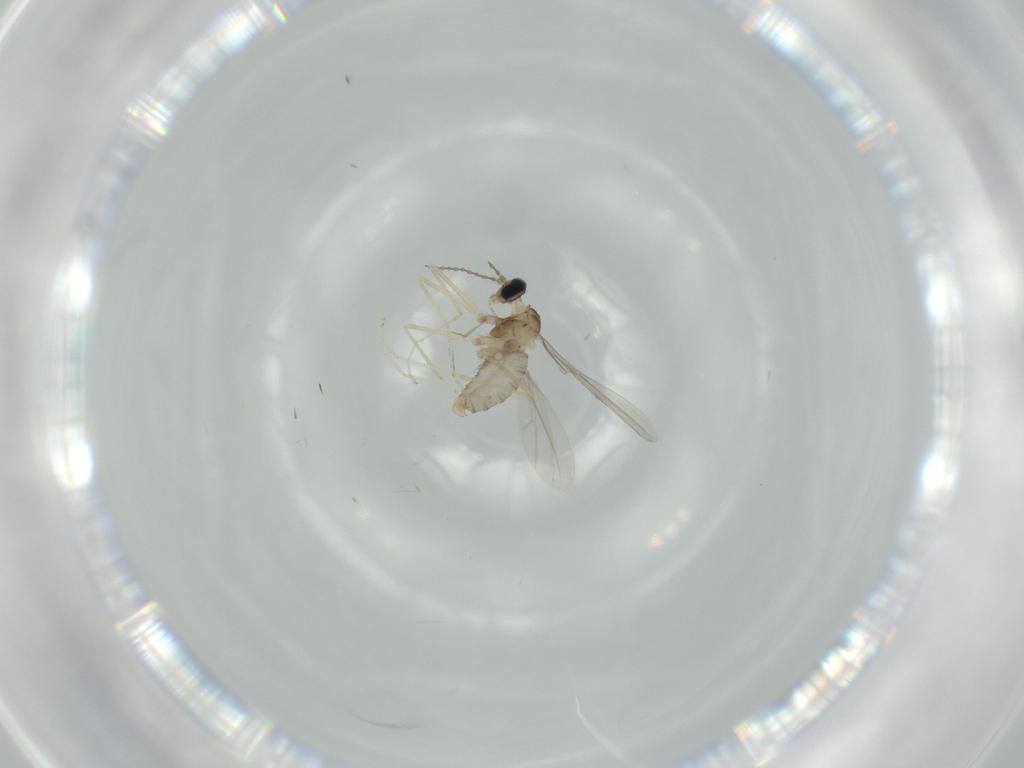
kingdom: Animalia
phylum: Arthropoda
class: Insecta
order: Diptera
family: Cecidomyiidae
